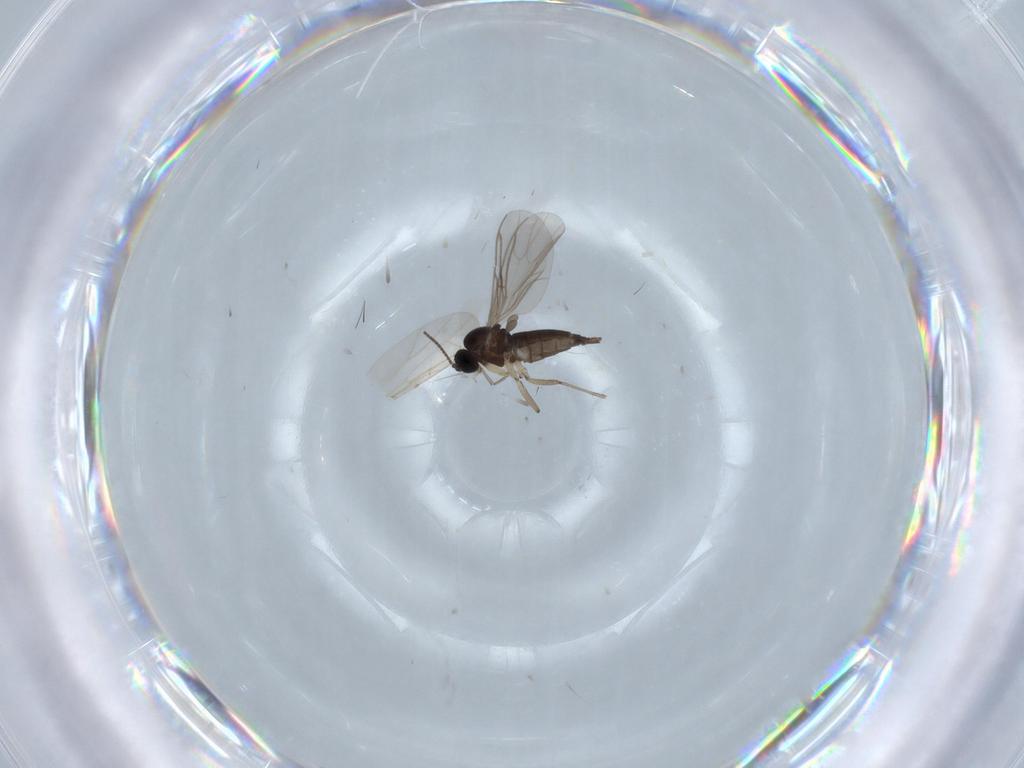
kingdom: Animalia
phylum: Arthropoda
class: Insecta
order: Diptera
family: Sciaridae
